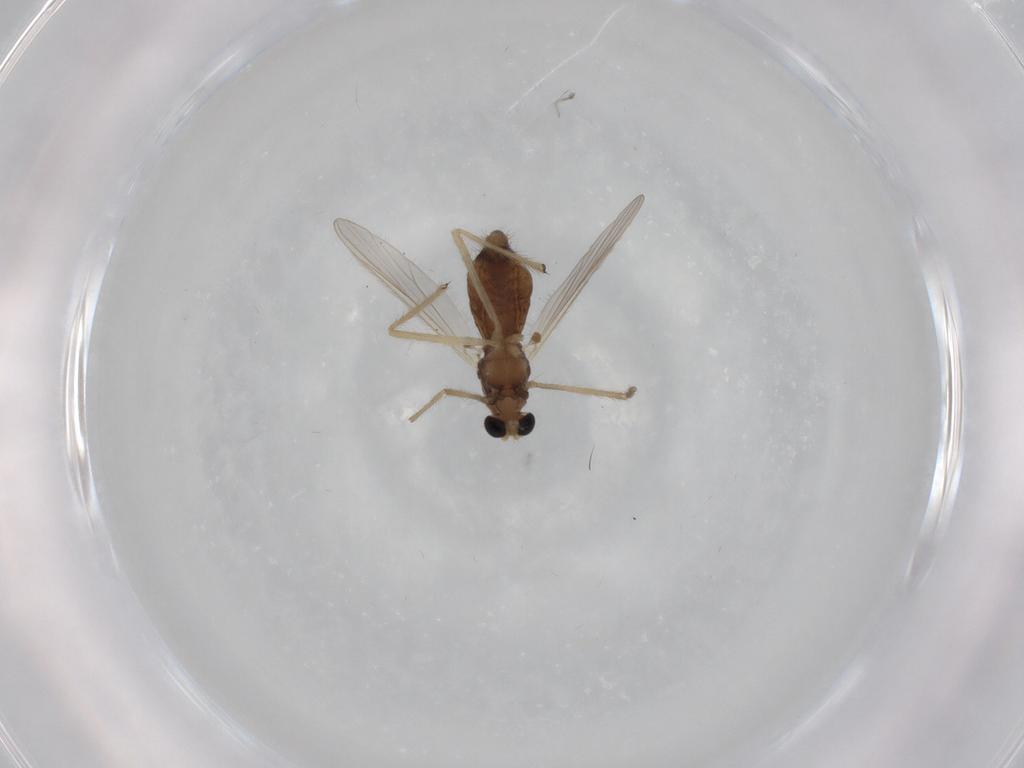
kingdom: Animalia
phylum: Arthropoda
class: Insecta
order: Diptera
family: Chironomidae
